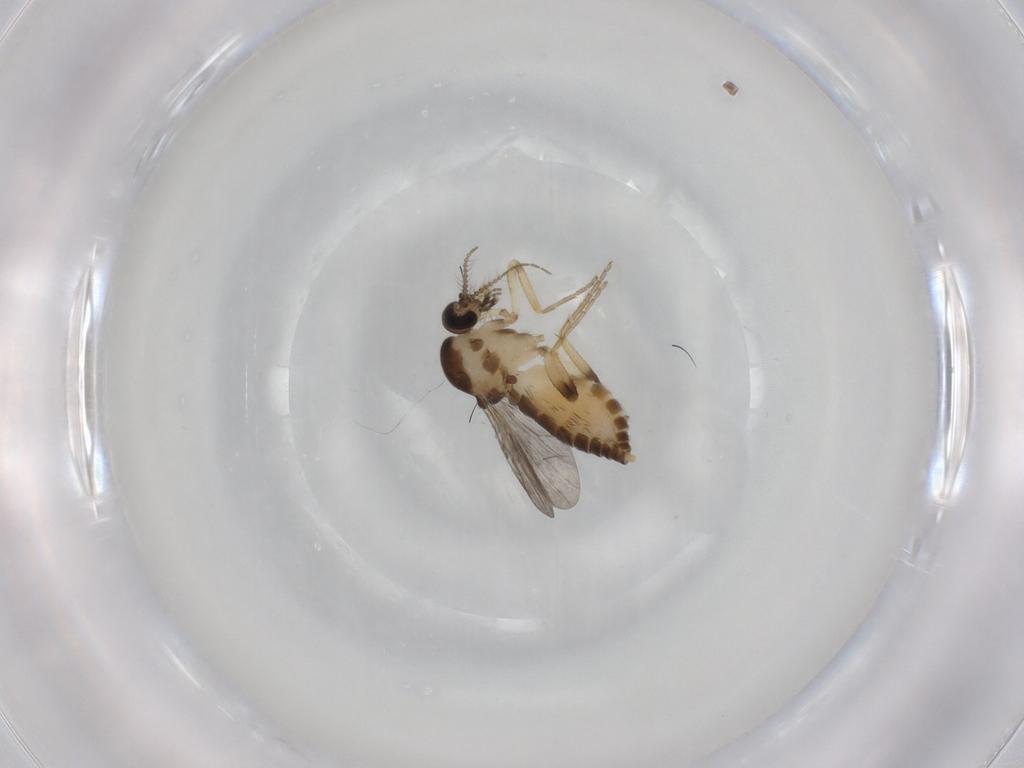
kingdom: Animalia
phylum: Arthropoda
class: Insecta
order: Diptera
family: Ceratopogonidae
